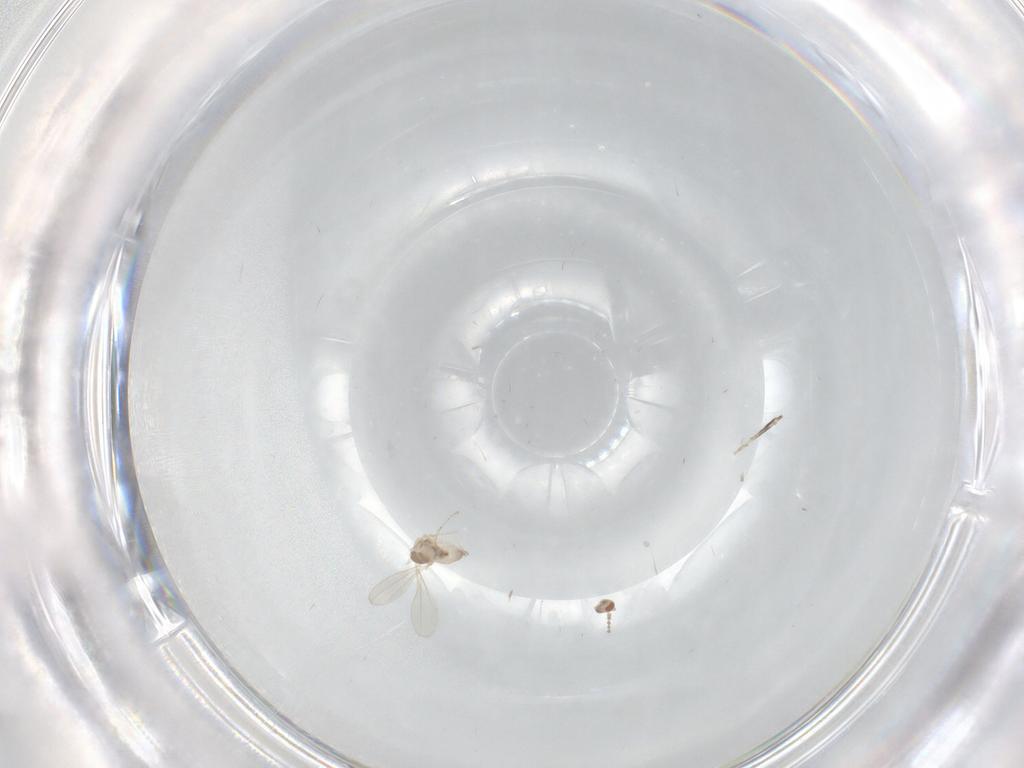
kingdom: Animalia
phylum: Arthropoda
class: Insecta
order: Diptera
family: Cecidomyiidae
